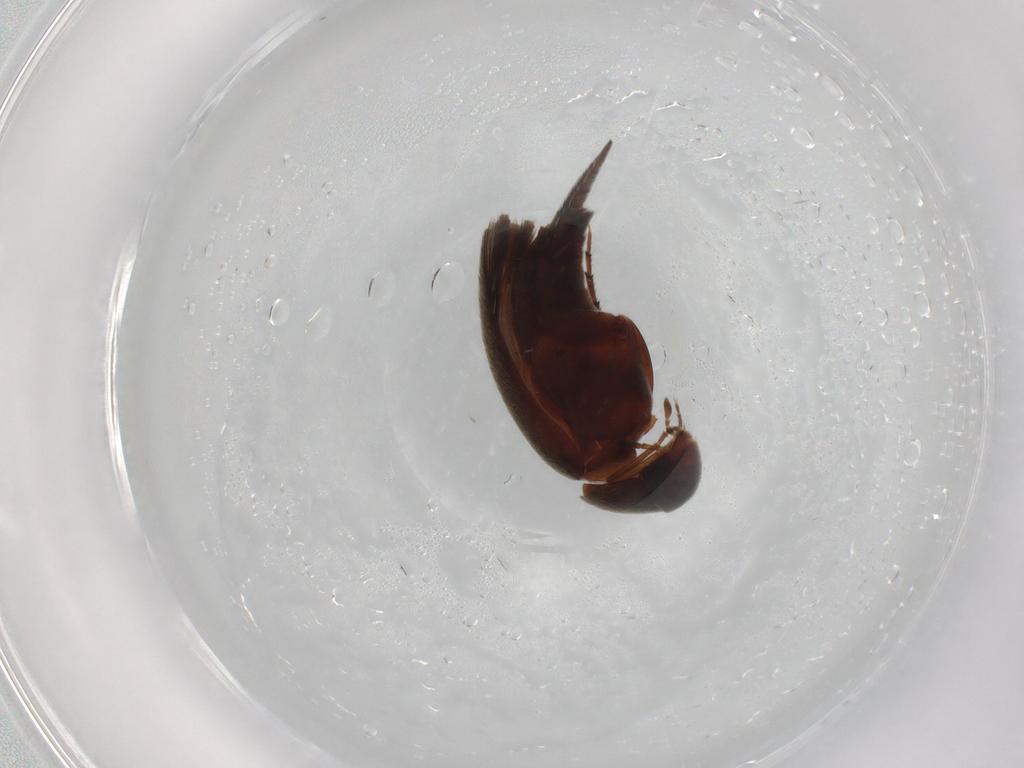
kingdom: Animalia
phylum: Arthropoda
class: Insecta
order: Coleoptera
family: Mordellidae
